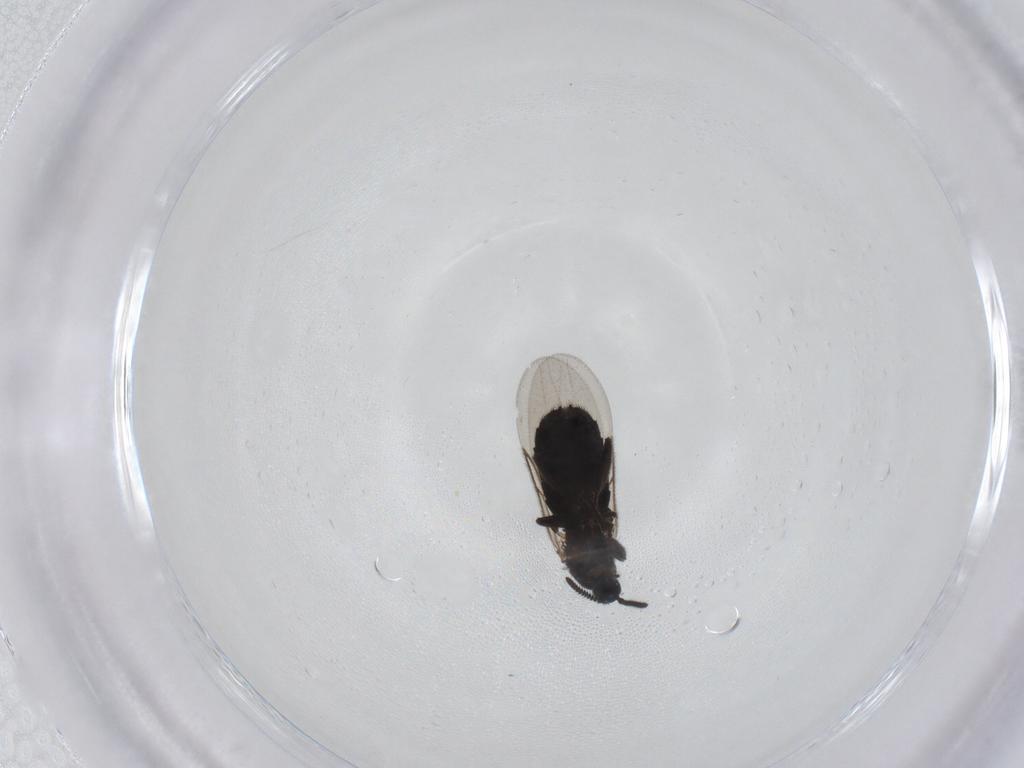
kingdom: Animalia
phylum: Arthropoda
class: Insecta
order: Diptera
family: Scatopsidae
